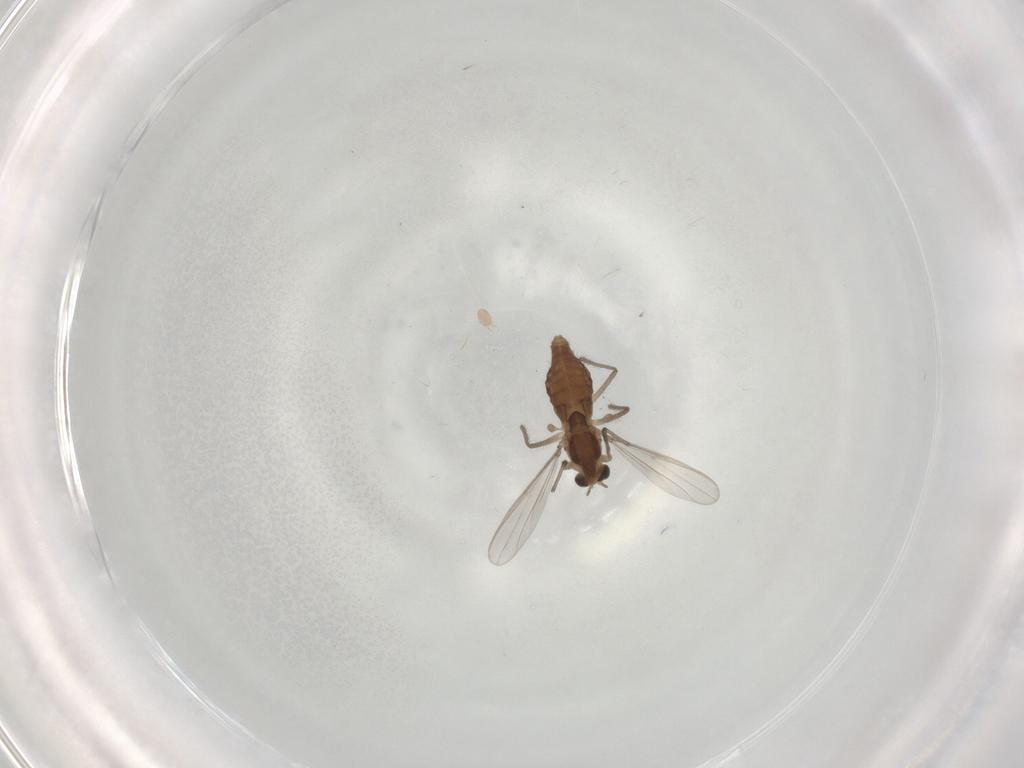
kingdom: Animalia
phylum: Arthropoda
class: Insecta
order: Diptera
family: Chironomidae
